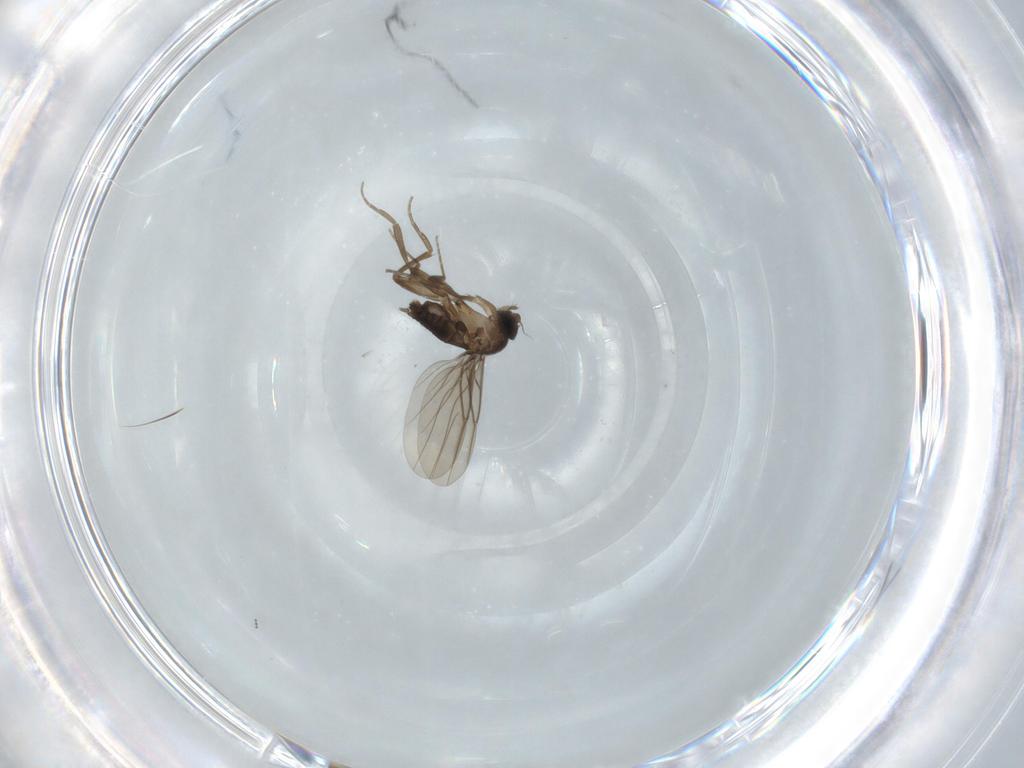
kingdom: Animalia
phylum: Arthropoda
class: Insecta
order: Diptera
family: Phoridae
